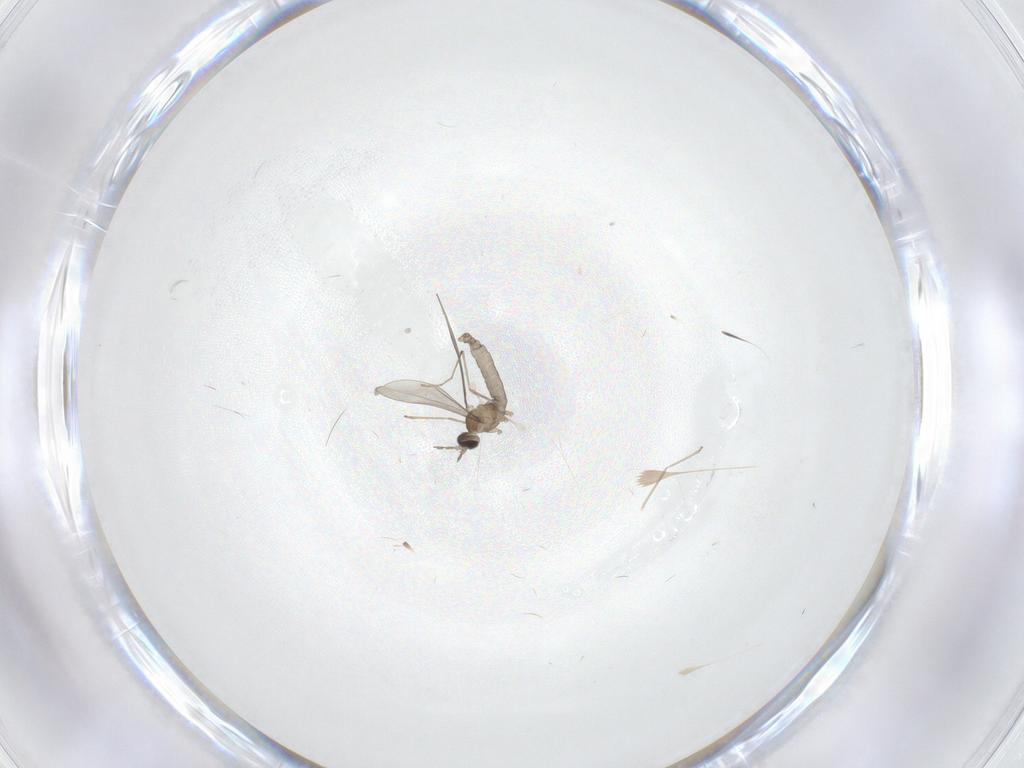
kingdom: Animalia
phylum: Arthropoda
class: Insecta
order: Diptera
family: Cecidomyiidae
